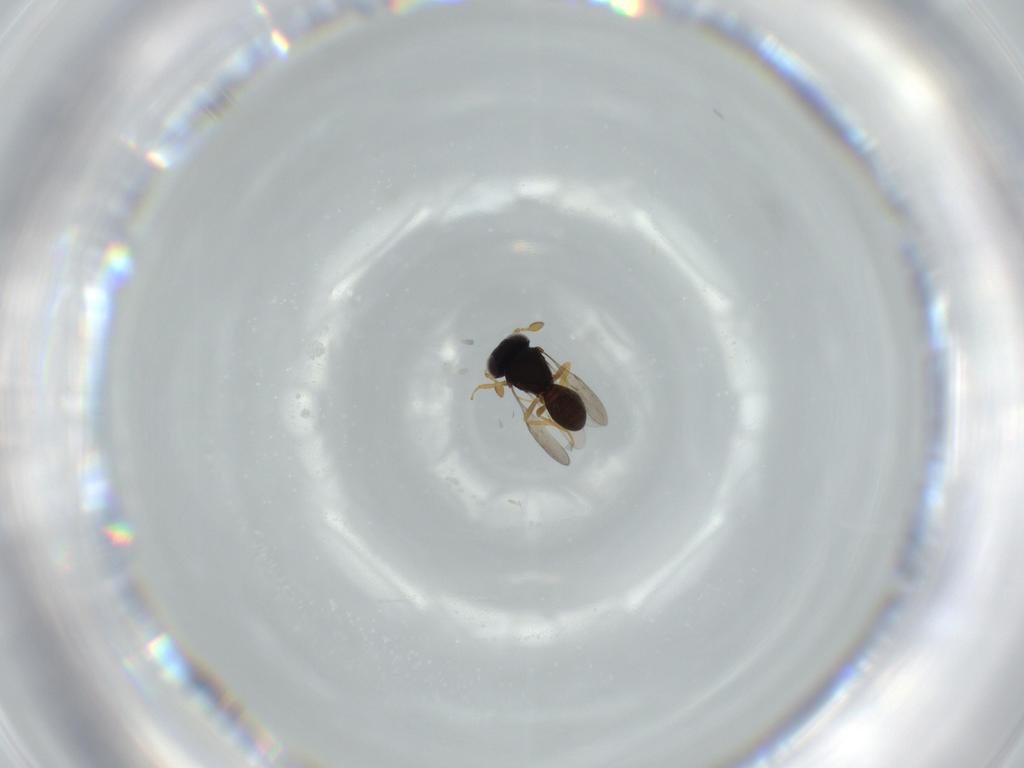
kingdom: Animalia
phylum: Arthropoda
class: Insecta
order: Hymenoptera
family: Scelionidae
